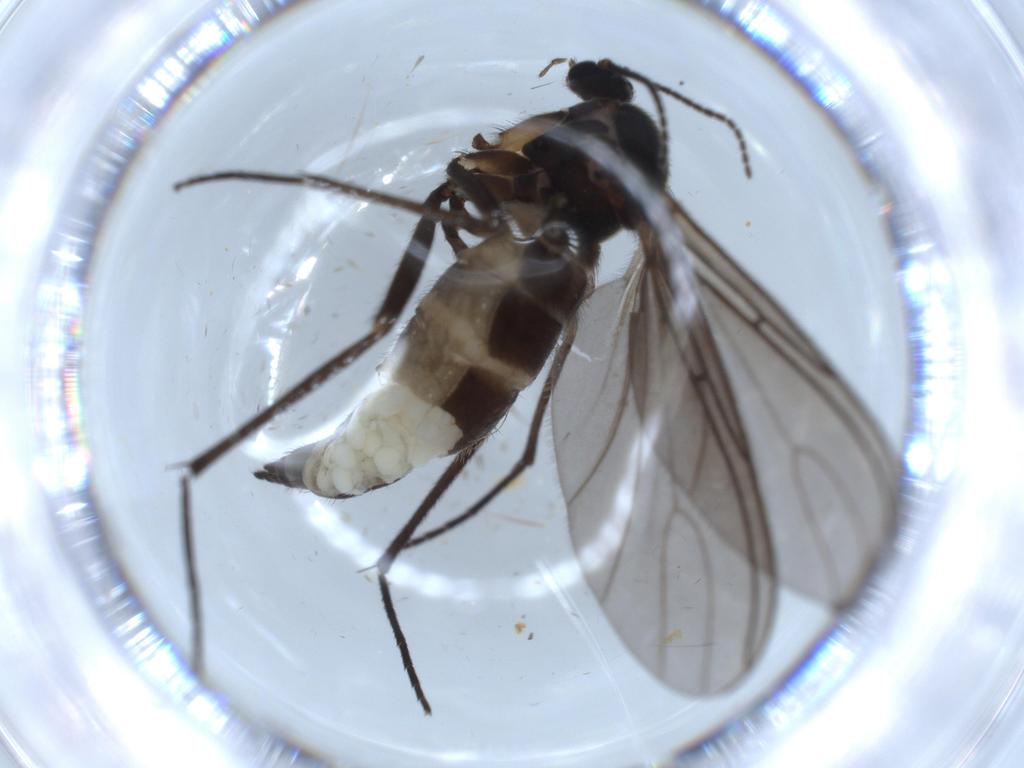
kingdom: Animalia
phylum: Arthropoda
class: Insecta
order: Diptera
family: Sciaridae
